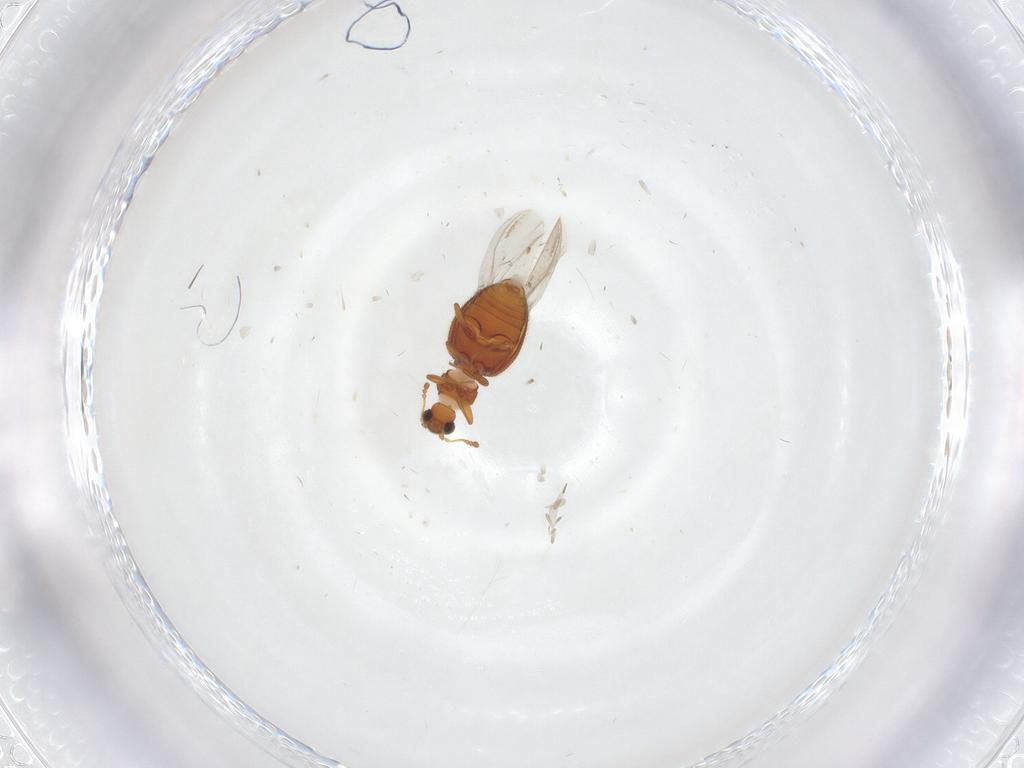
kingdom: Animalia
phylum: Arthropoda
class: Insecta
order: Coleoptera
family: Latridiidae
